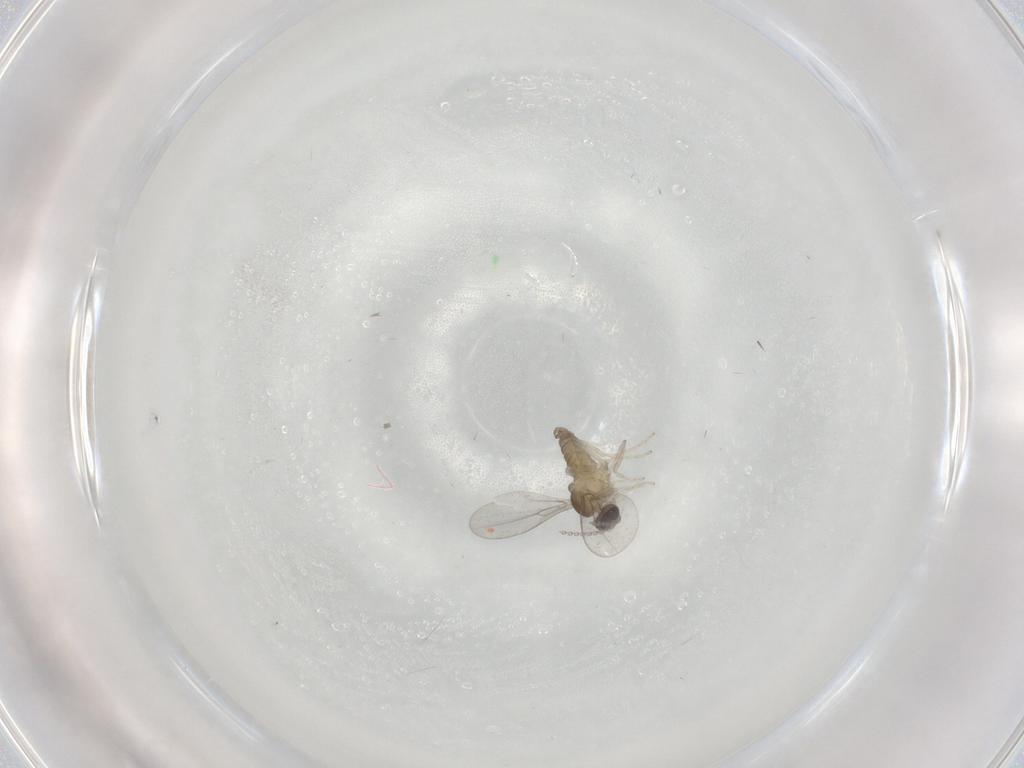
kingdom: Animalia
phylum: Arthropoda
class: Insecta
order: Diptera
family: Cecidomyiidae
